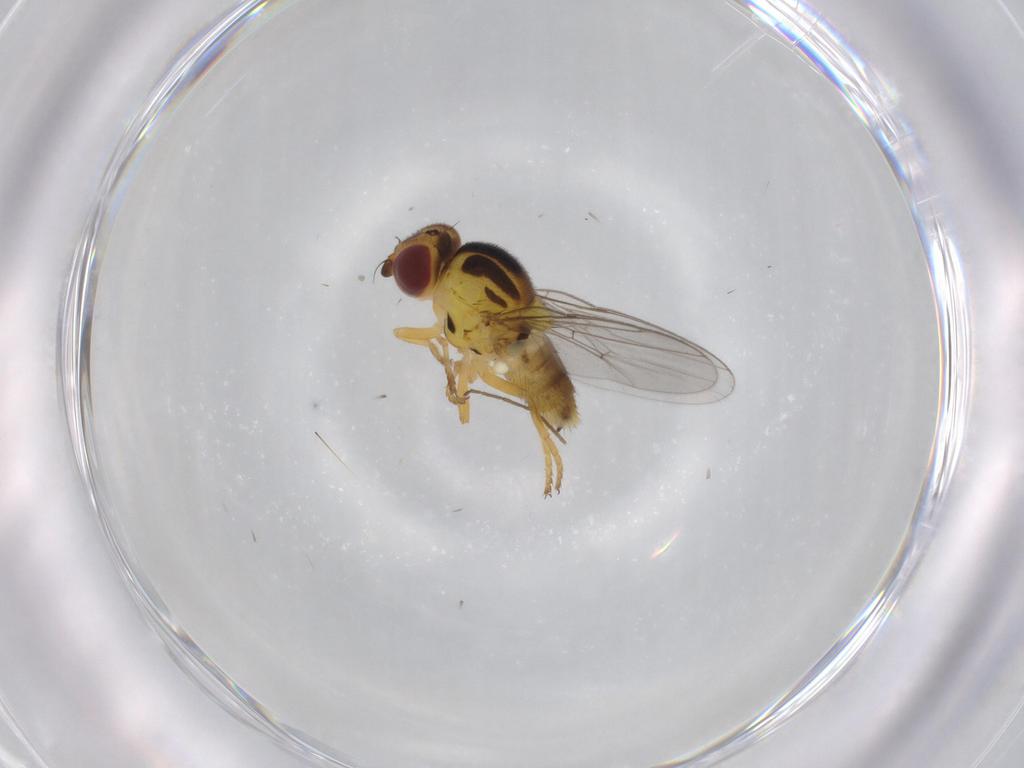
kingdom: Animalia
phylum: Arthropoda
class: Insecta
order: Diptera
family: Chloropidae
